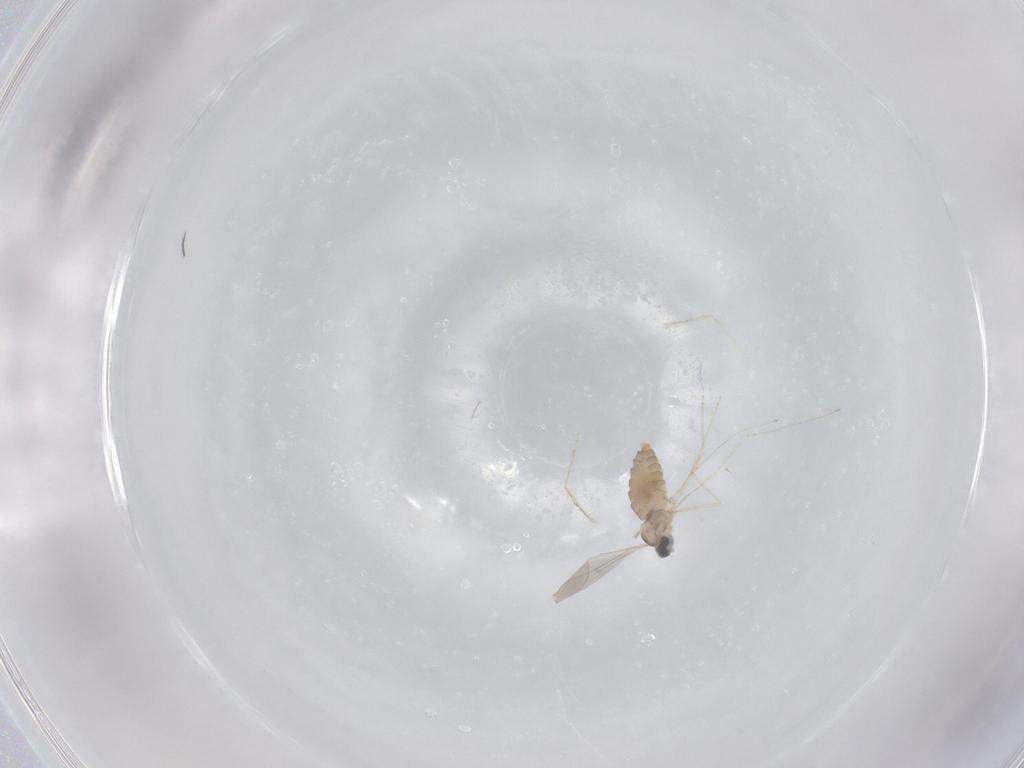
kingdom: Animalia
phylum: Arthropoda
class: Insecta
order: Diptera
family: Cecidomyiidae
